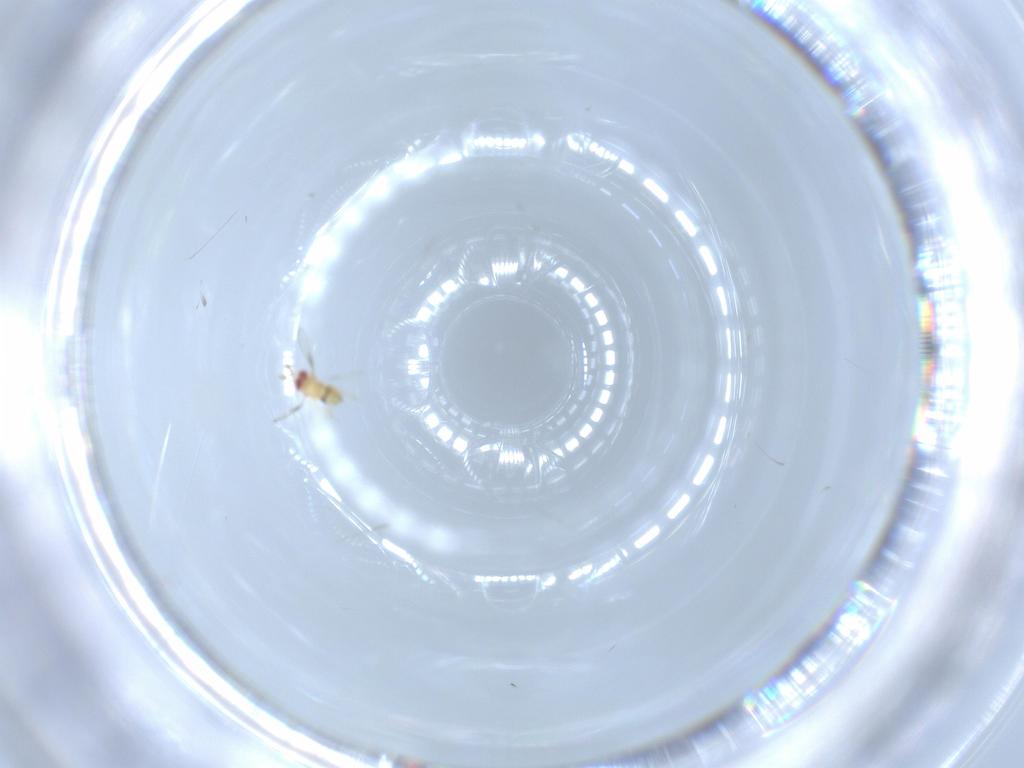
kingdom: Animalia
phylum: Arthropoda
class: Insecta
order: Hymenoptera
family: Trichogrammatidae
